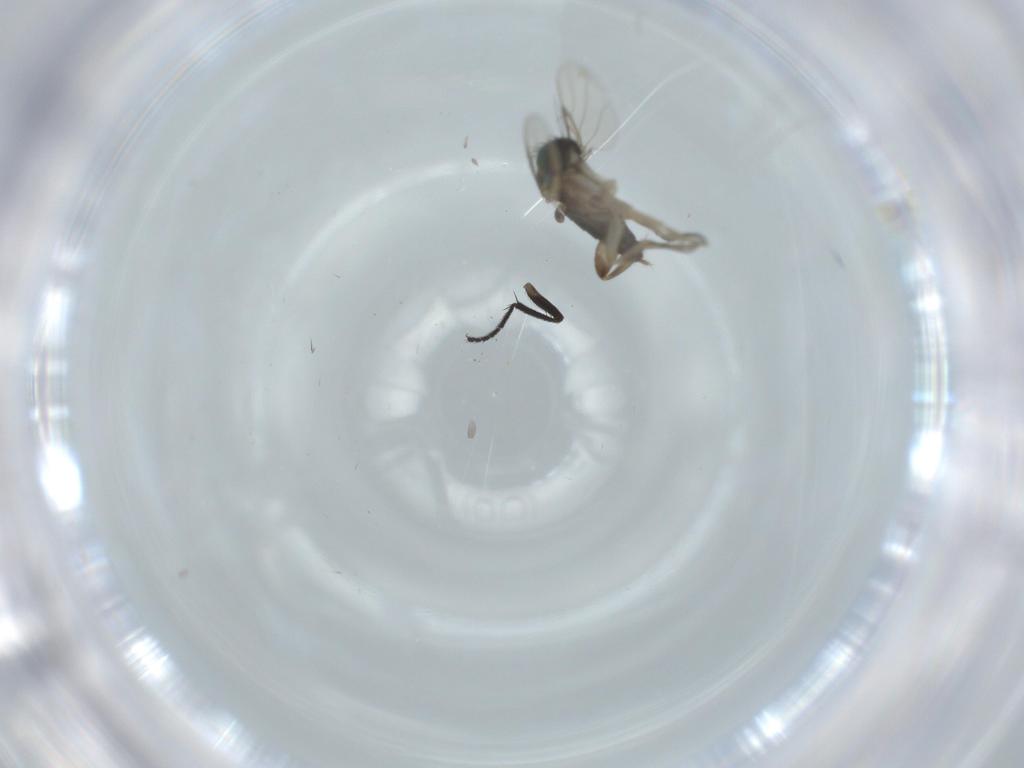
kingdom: Animalia
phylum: Arthropoda
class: Insecta
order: Diptera
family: Phoridae
